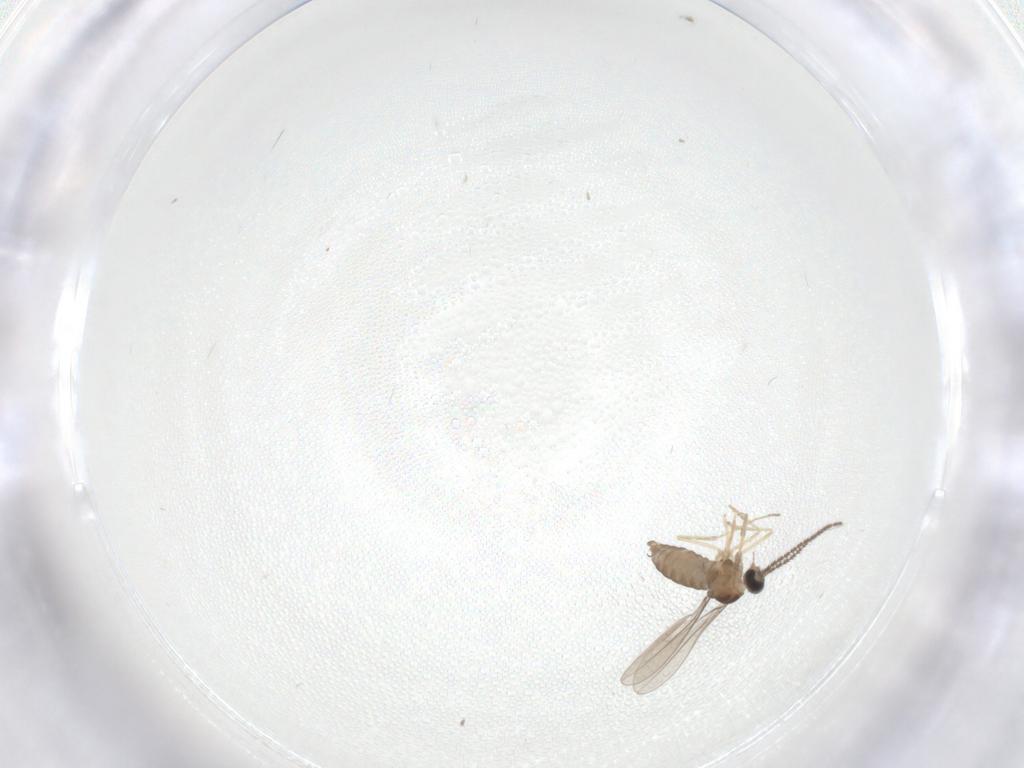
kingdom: Animalia
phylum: Arthropoda
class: Insecta
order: Diptera
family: Cecidomyiidae
